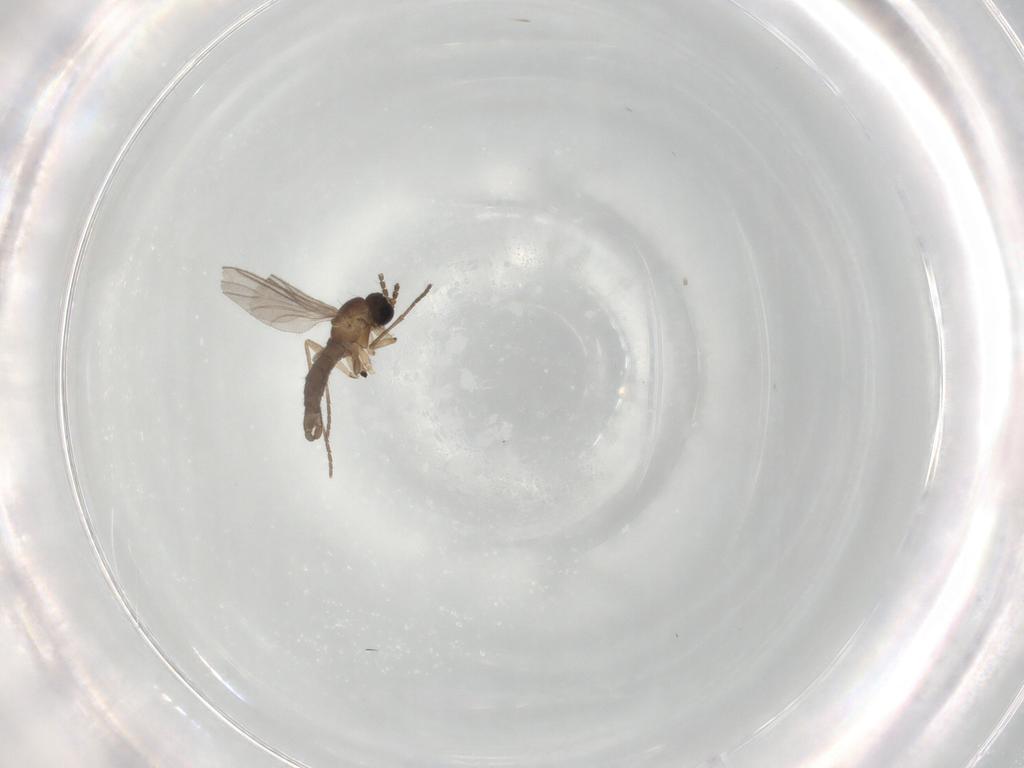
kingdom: Animalia
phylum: Arthropoda
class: Insecta
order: Diptera
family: Sciaridae
